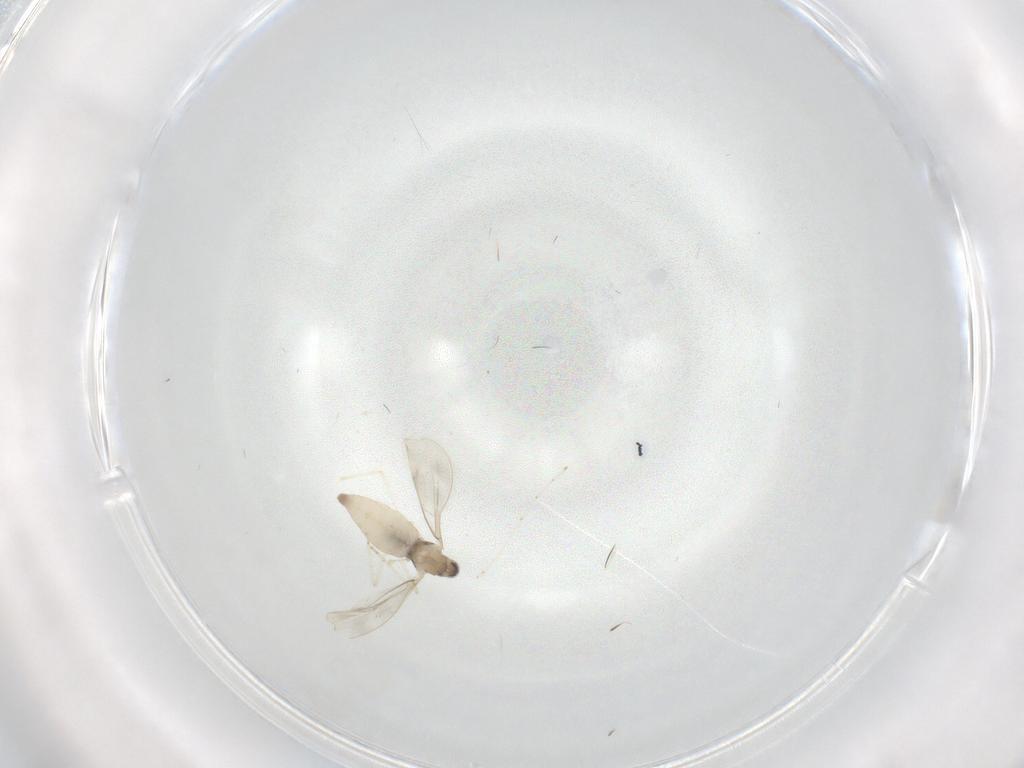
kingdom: Animalia
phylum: Arthropoda
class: Insecta
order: Diptera
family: Cecidomyiidae
